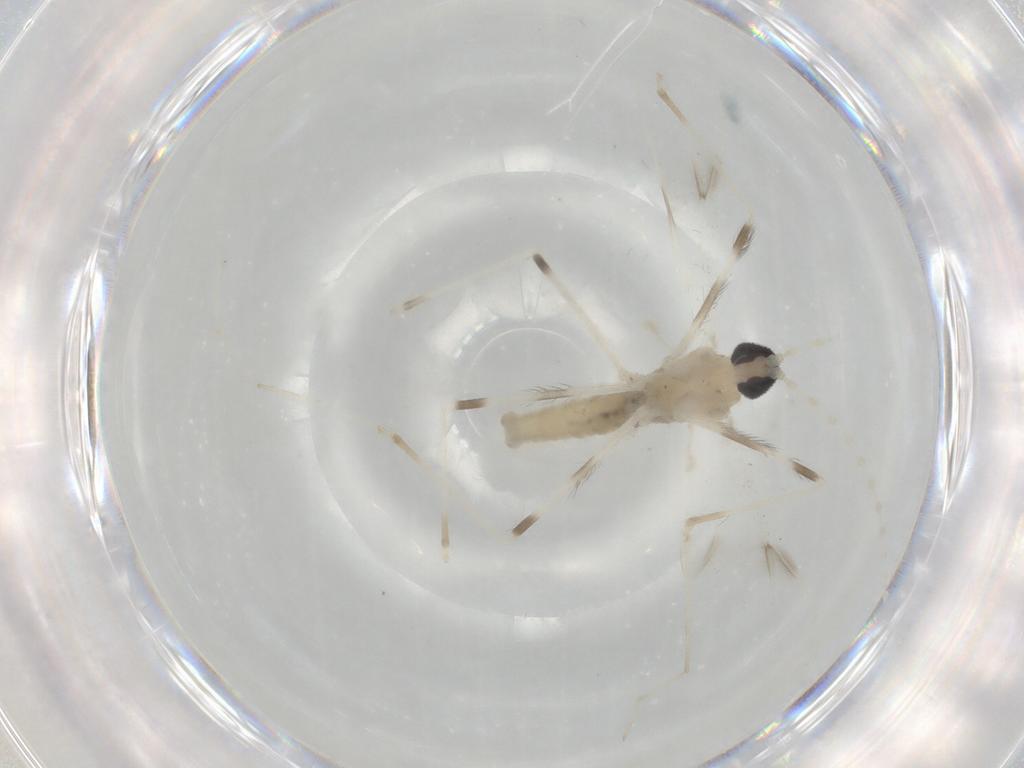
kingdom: Animalia
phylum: Arthropoda
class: Insecta
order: Diptera
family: Cecidomyiidae
